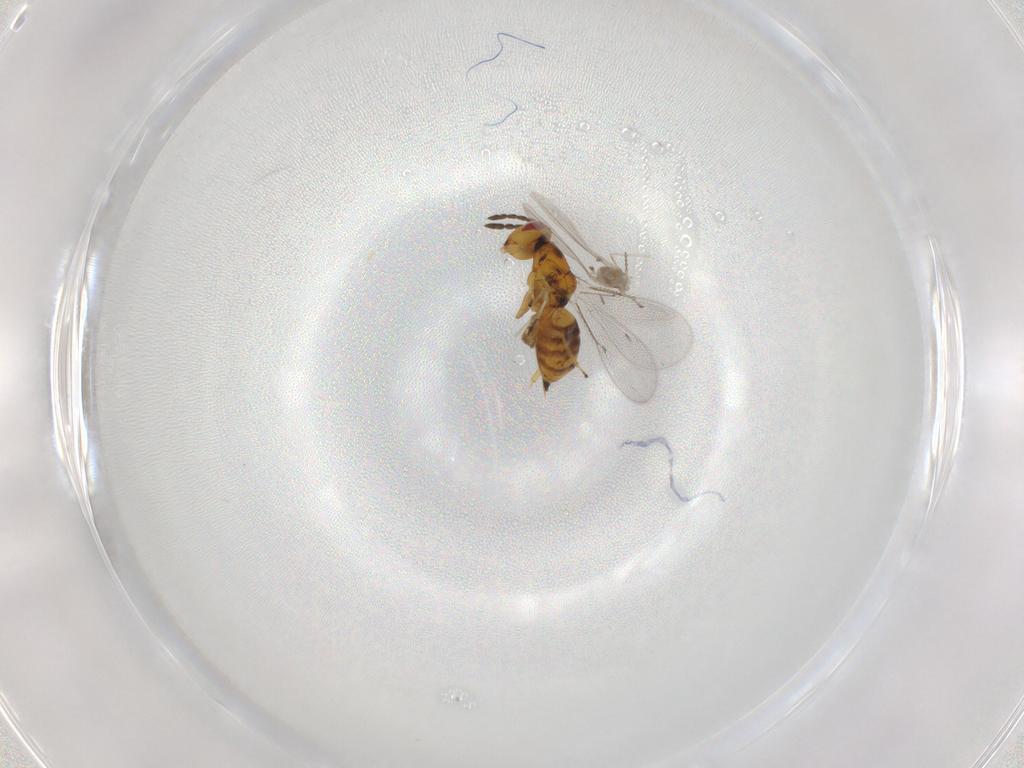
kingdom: Animalia
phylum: Arthropoda
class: Insecta
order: Hymenoptera
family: Eulophidae
